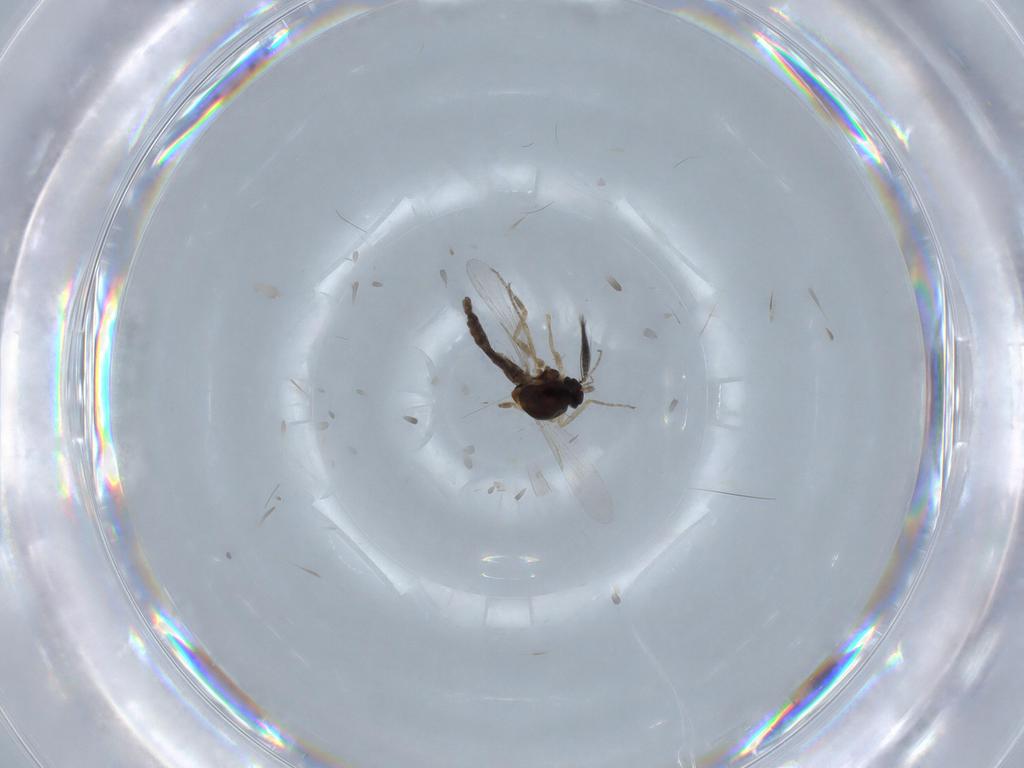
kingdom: Animalia
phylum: Arthropoda
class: Insecta
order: Diptera
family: Ceratopogonidae
